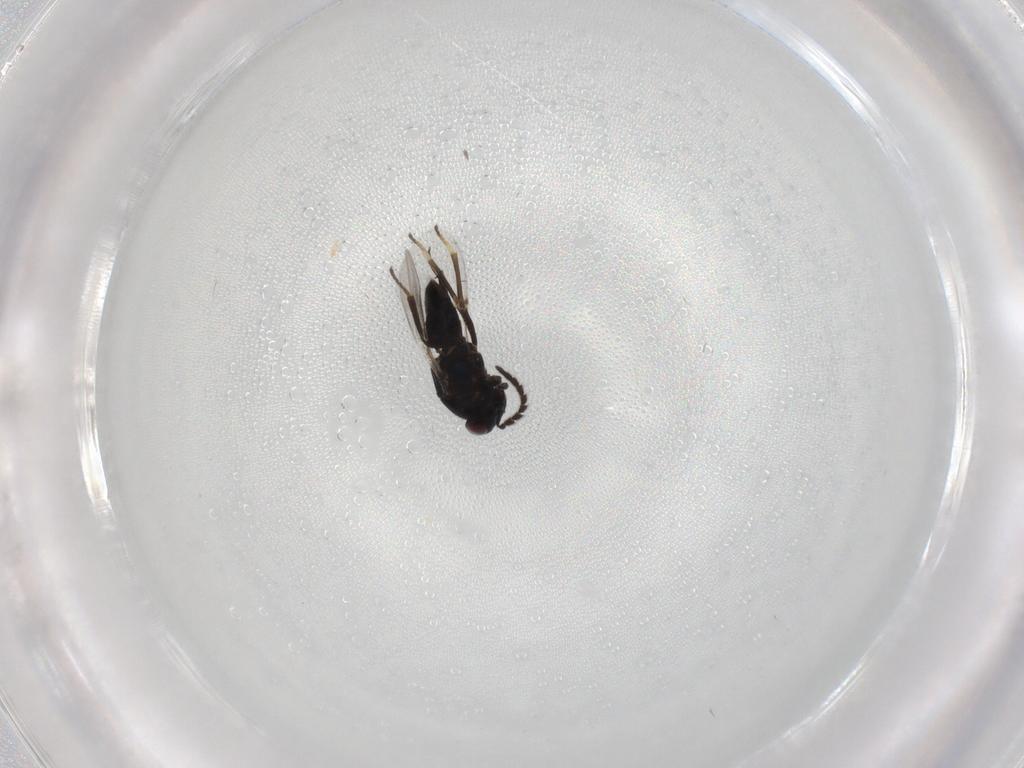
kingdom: Animalia
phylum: Arthropoda
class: Insecta
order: Hymenoptera
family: Encyrtidae
